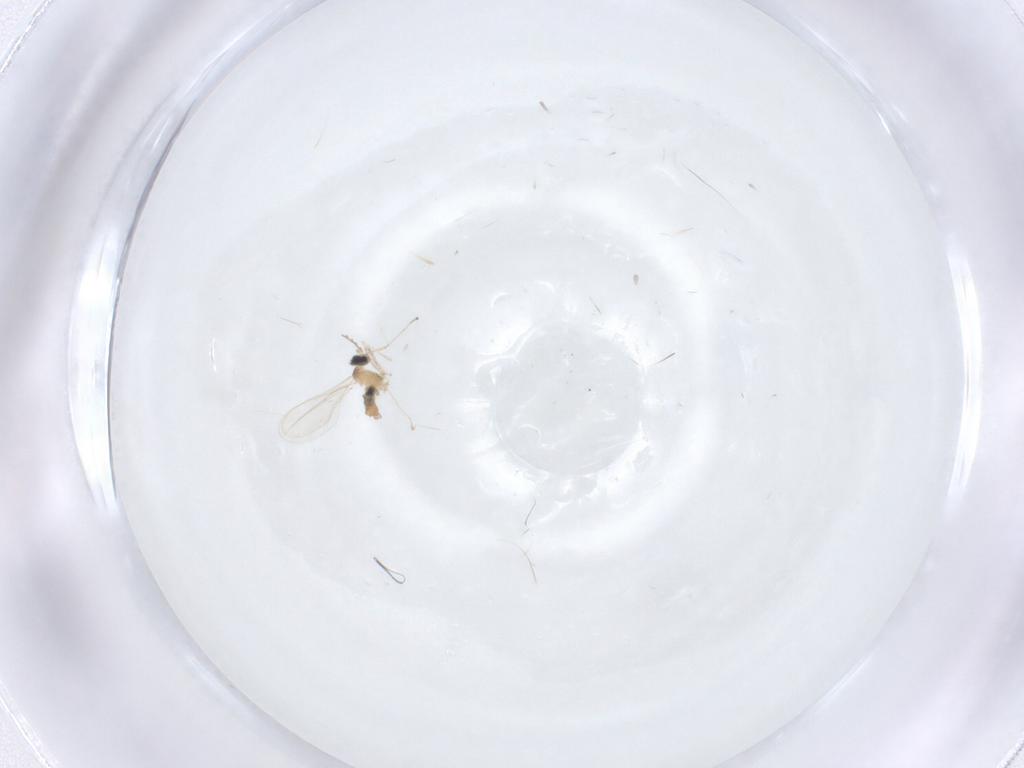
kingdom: Animalia
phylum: Arthropoda
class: Insecta
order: Diptera
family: Cecidomyiidae
